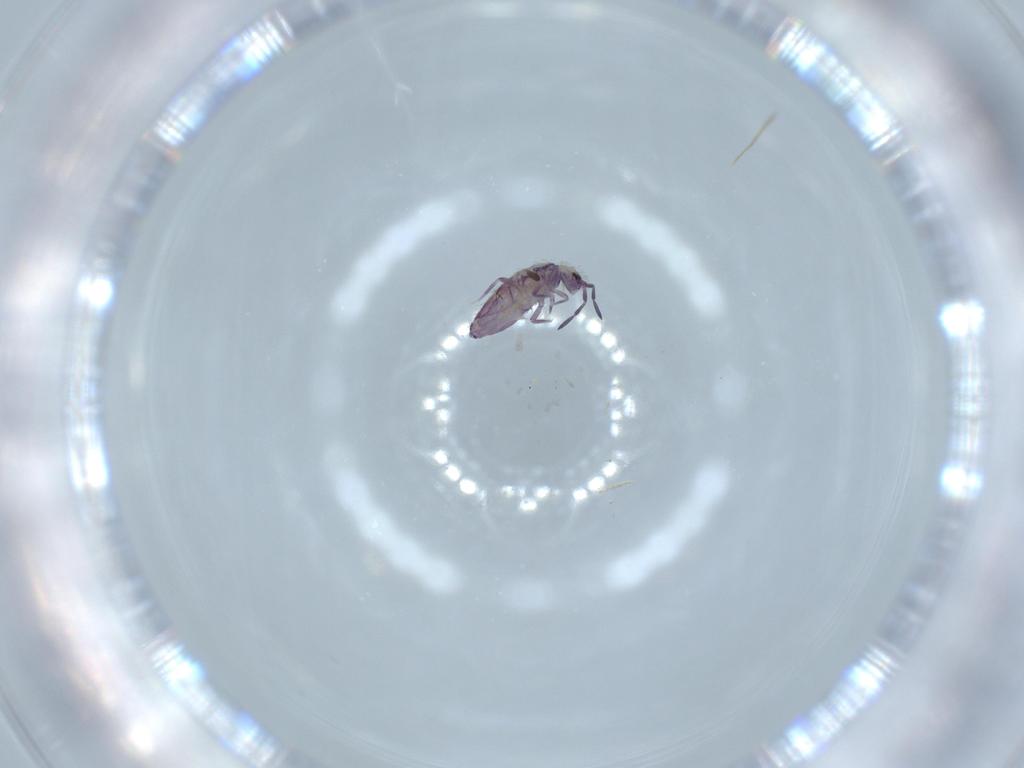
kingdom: Animalia
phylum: Arthropoda
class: Collembola
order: Entomobryomorpha
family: Entomobryidae
